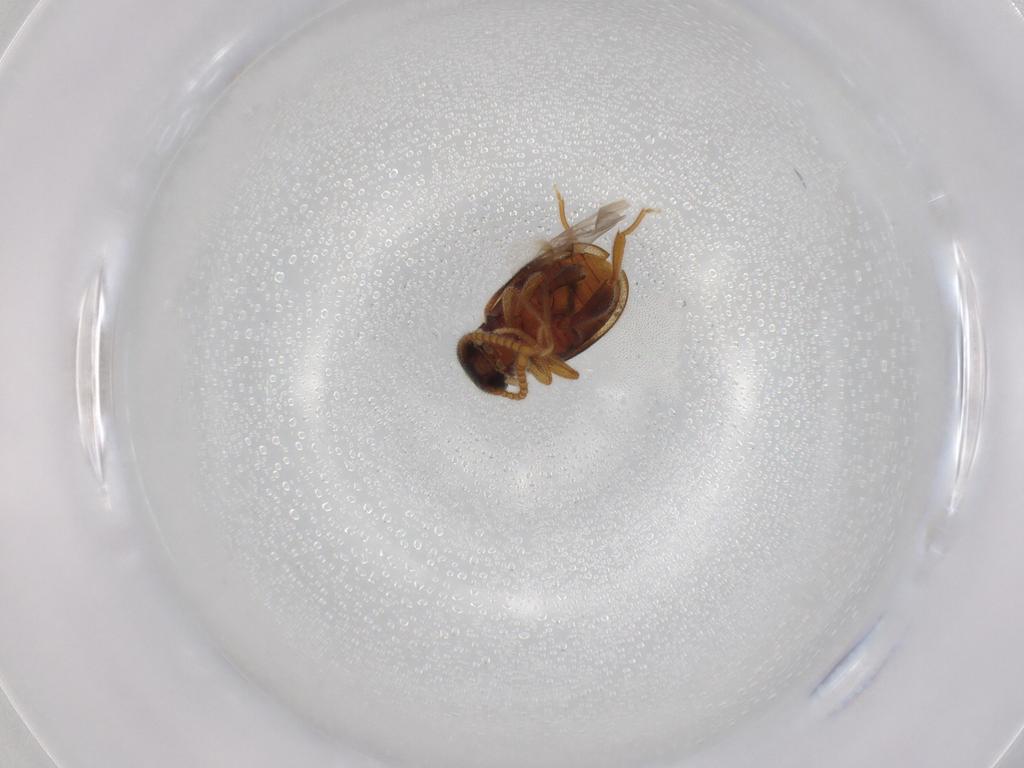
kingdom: Animalia
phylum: Arthropoda
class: Insecta
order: Coleoptera
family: Aderidae
